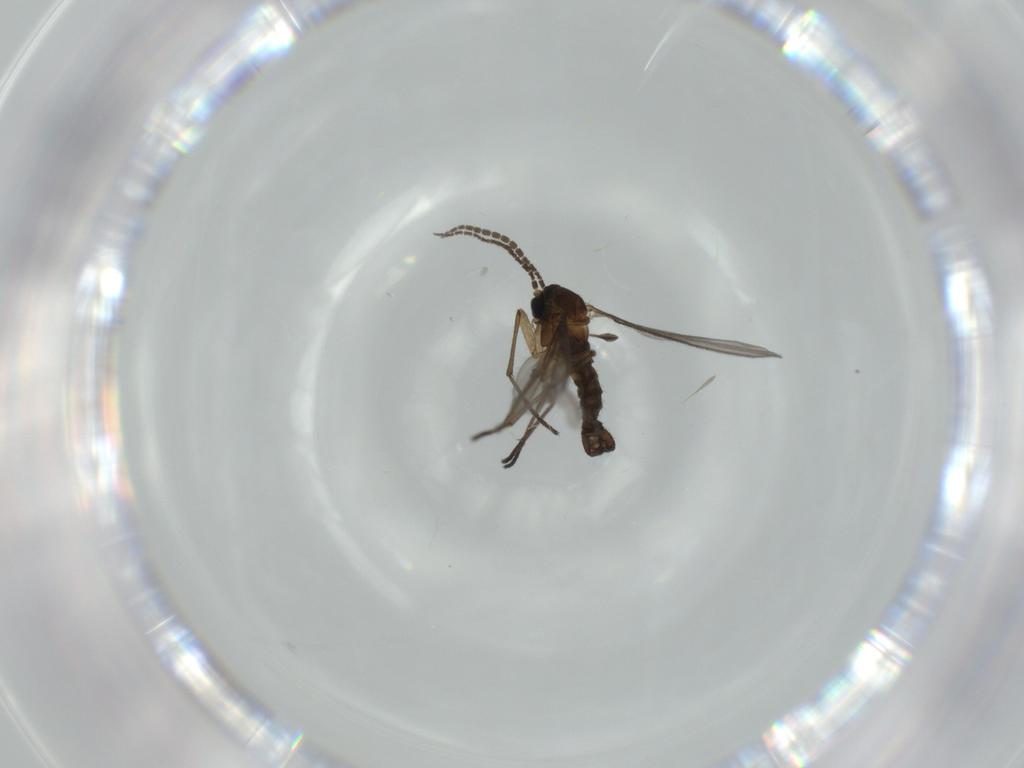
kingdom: Animalia
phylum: Arthropoda
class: Insecta
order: Diptera
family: Sciaridae
